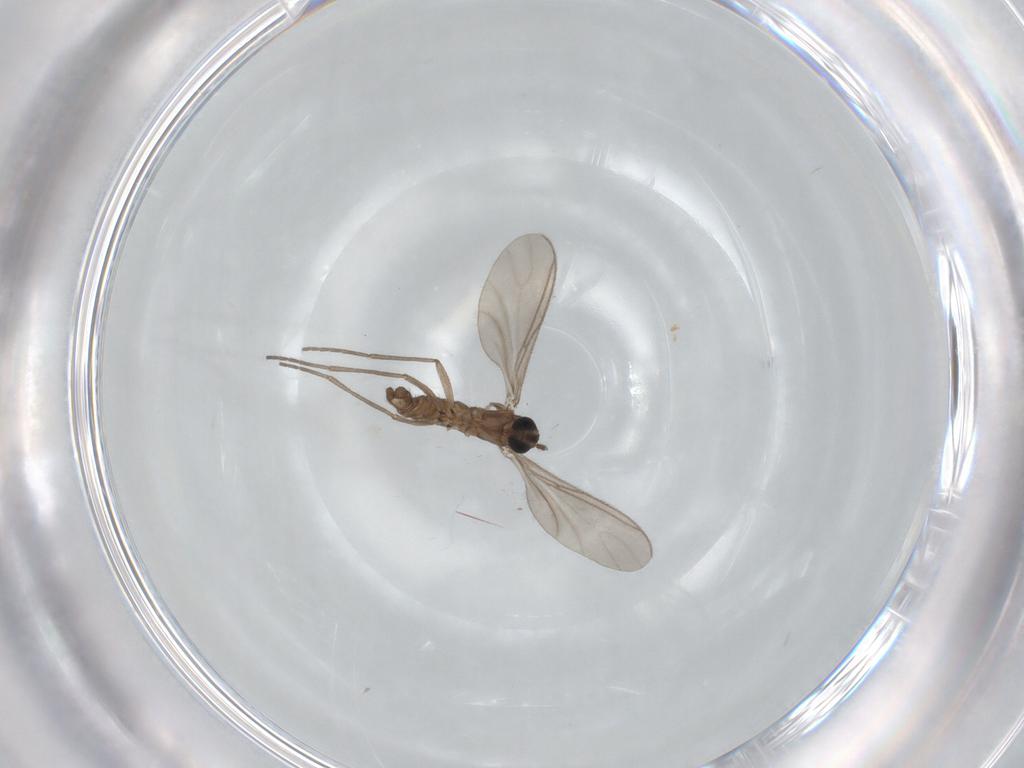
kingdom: Animalia
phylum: Arthropoda
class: Insecta
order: Diptera
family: Sciaridae
